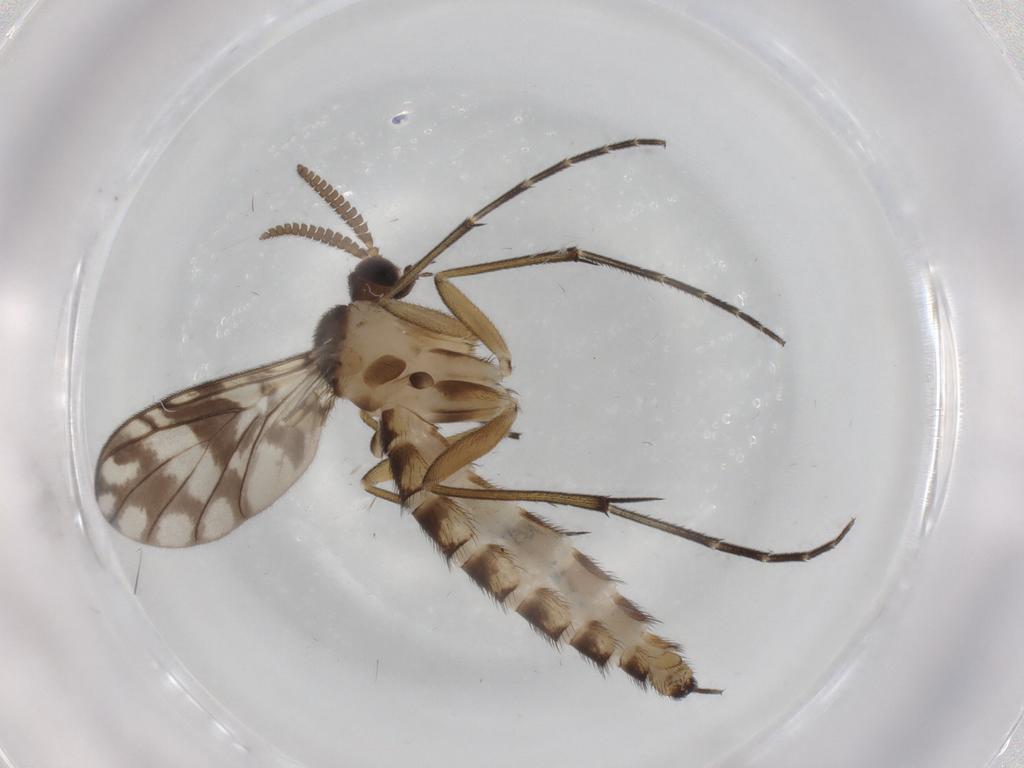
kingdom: Animalia
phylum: Arthropoda
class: Insecta
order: Diptera
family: Keroplatidae
